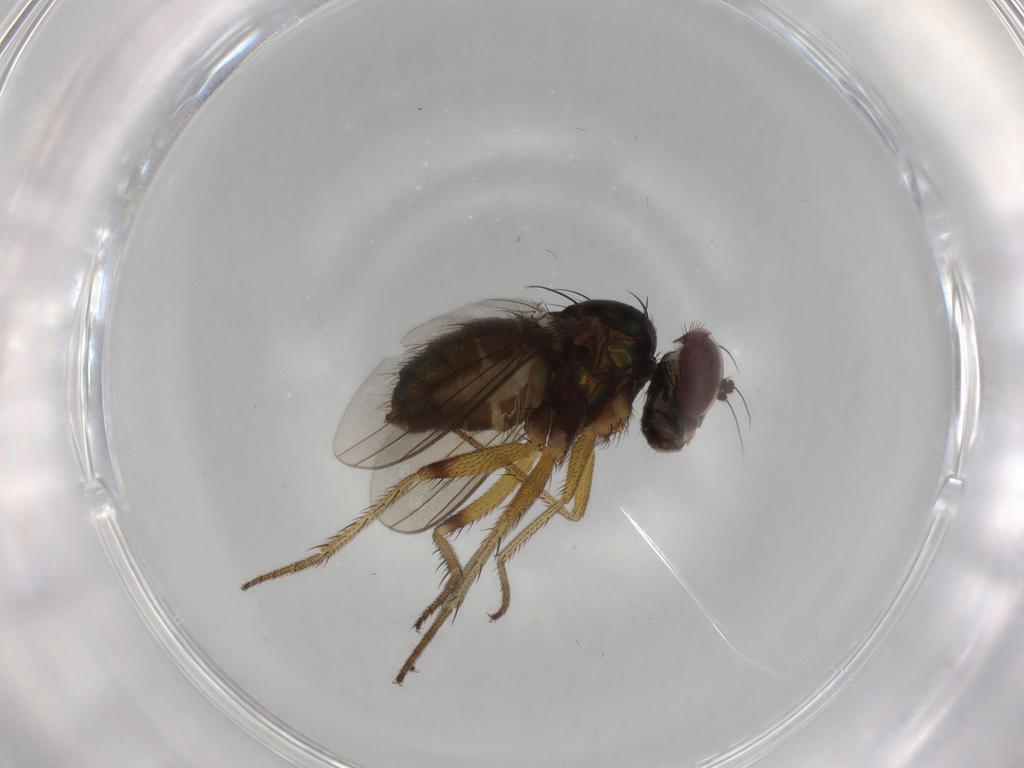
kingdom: Animalia
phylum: Arthropoda
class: Insecta
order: Diptera
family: Dolichopodidae
